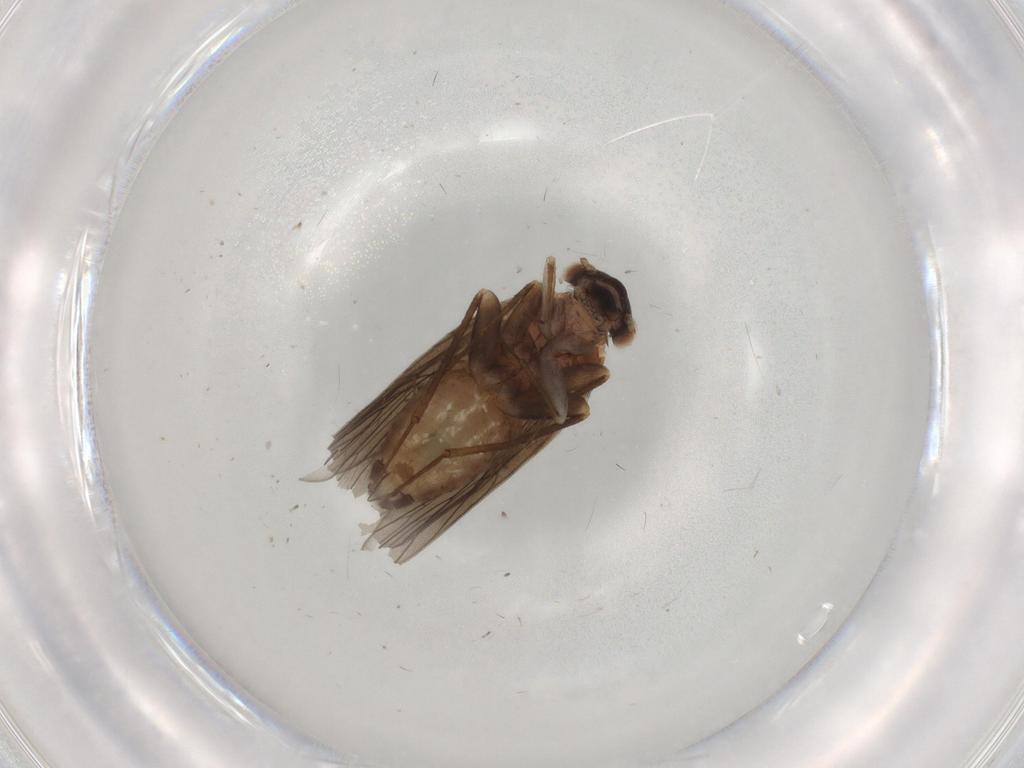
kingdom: Animalia
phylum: Arthropoda
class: Insecta
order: Psocodea
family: Lepidopsocidae
